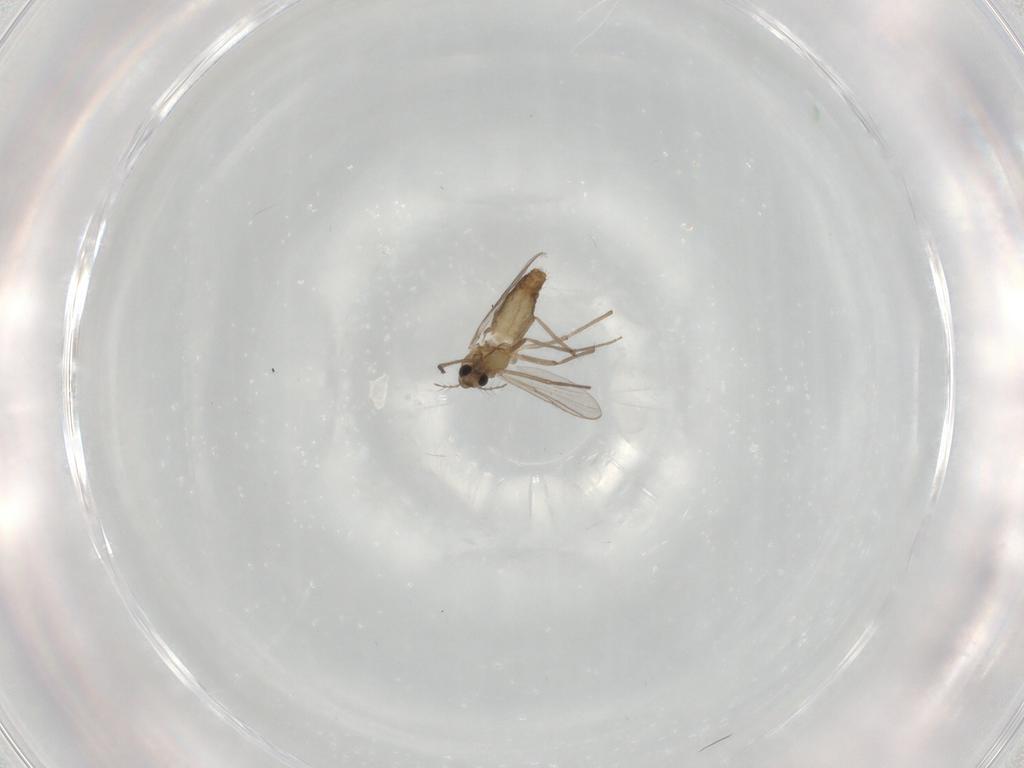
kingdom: Animalia
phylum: Arthropoda
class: Insecta
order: Diptera
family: Chironomidae
